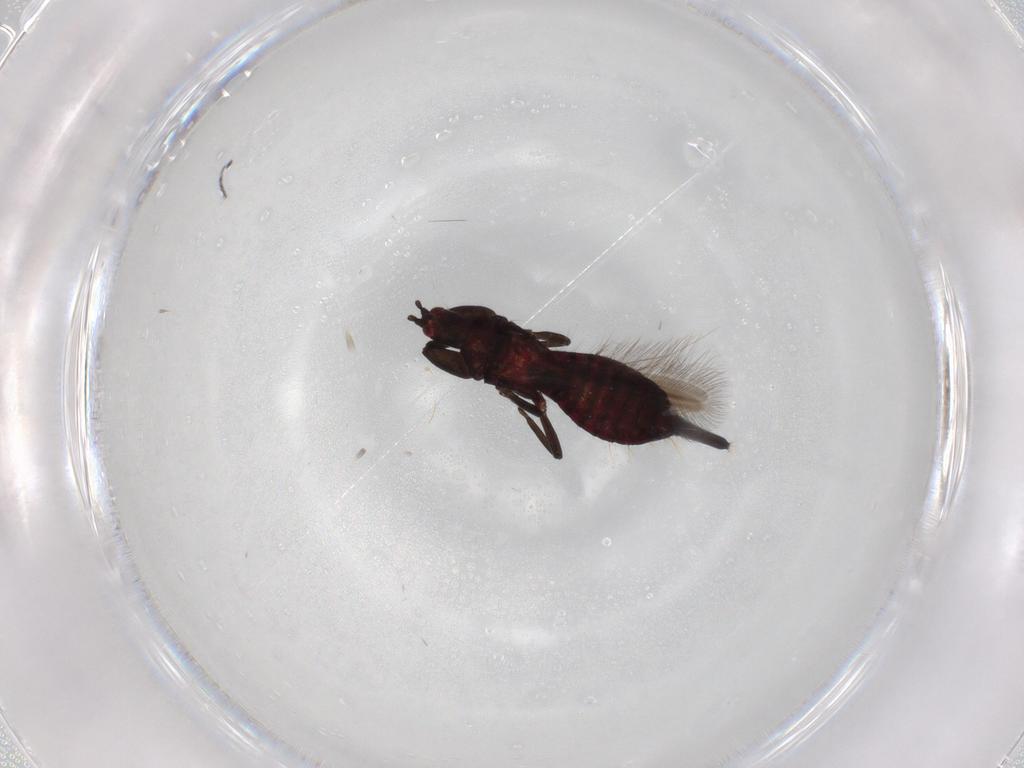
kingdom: Animalia
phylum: Arthropoda
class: Insecta
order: Thysanoptera
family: Phlaeothripidae
